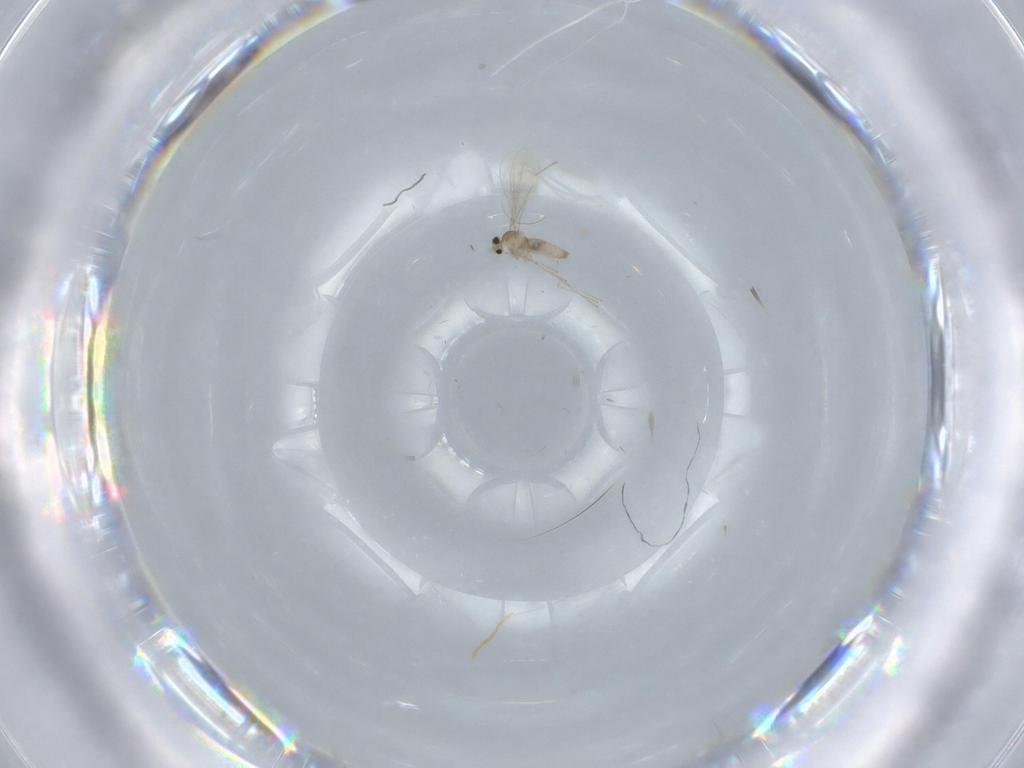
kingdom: Animalia
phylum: Arthropoda
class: Insecta
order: Diptera
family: Cecidomyiidae
